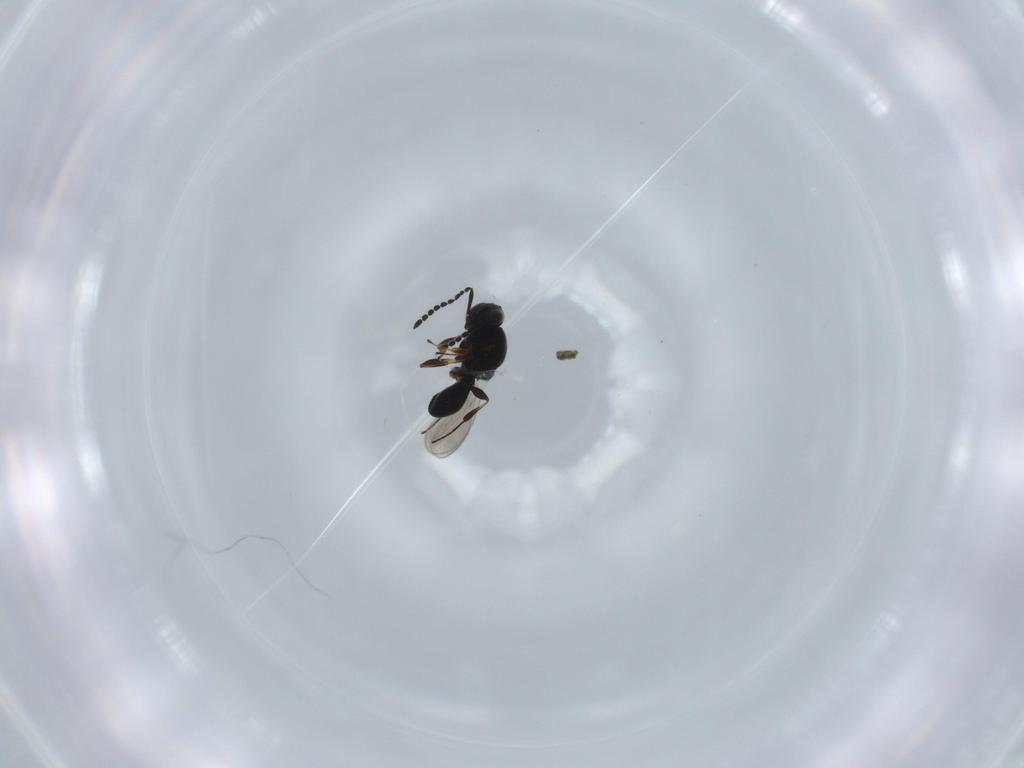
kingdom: Animalia
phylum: Arthropoda
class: Insecta
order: Hymenoptera
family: Platygastridae
